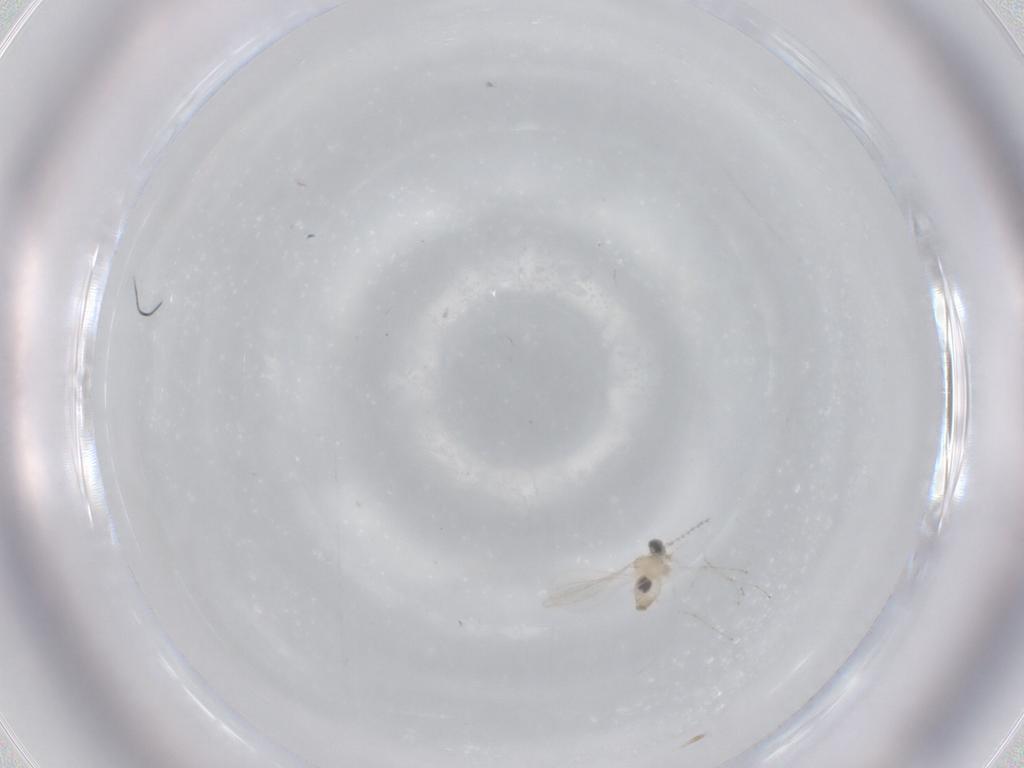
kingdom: Animalia
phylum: Arthropoda
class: Insecta
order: Diptera
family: Cecidomyiidae
